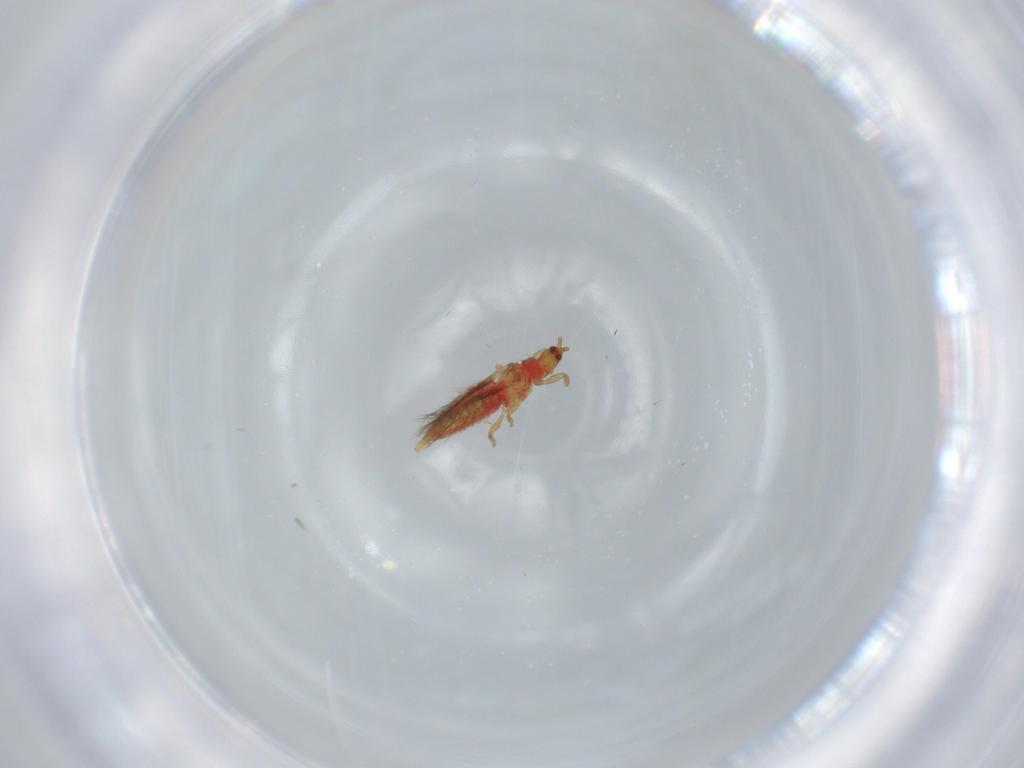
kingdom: Animalia
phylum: Arthropoda
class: Insecta
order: Thysanoptera
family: Phlaeothripidae
